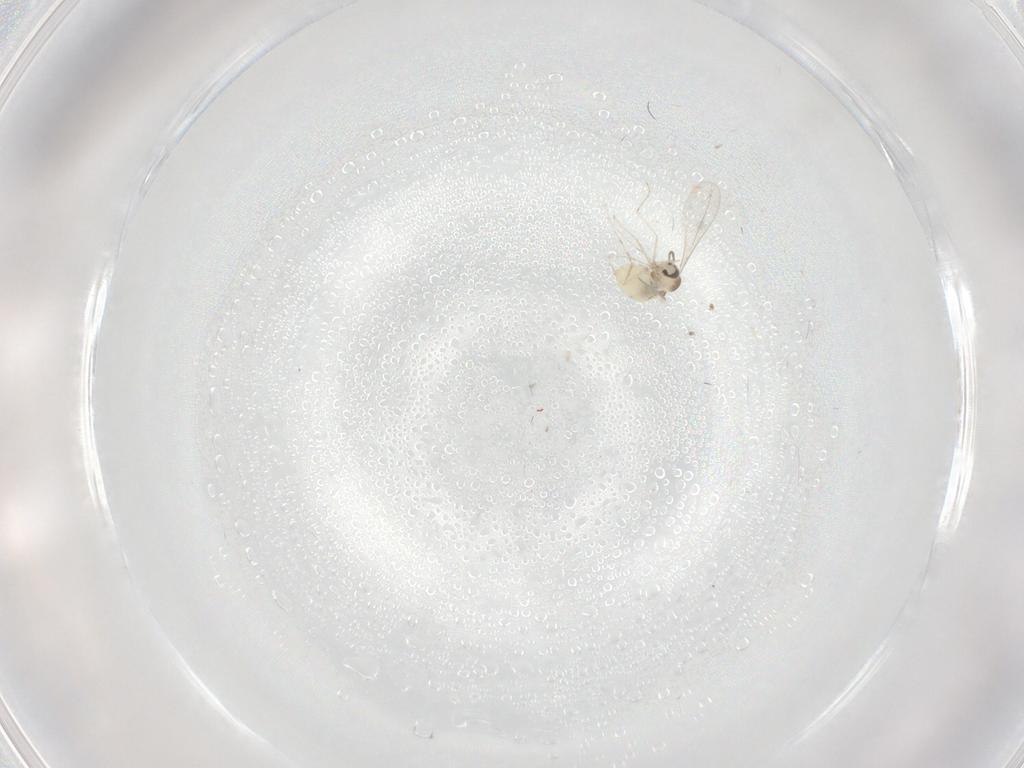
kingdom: Animalia
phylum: Arthropoda
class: Insecta
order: Diptera
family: Cecidomyiidae
